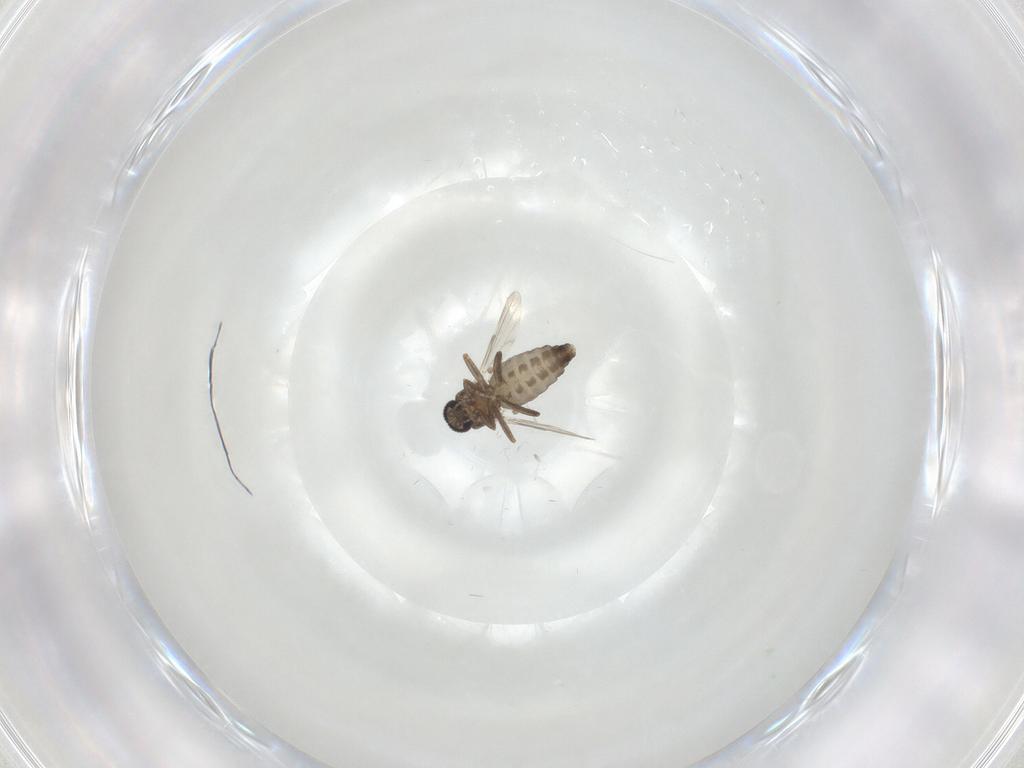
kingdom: Animalia
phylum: Arthropoda
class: Insecta
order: Diptera
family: Ceratopogonidae
